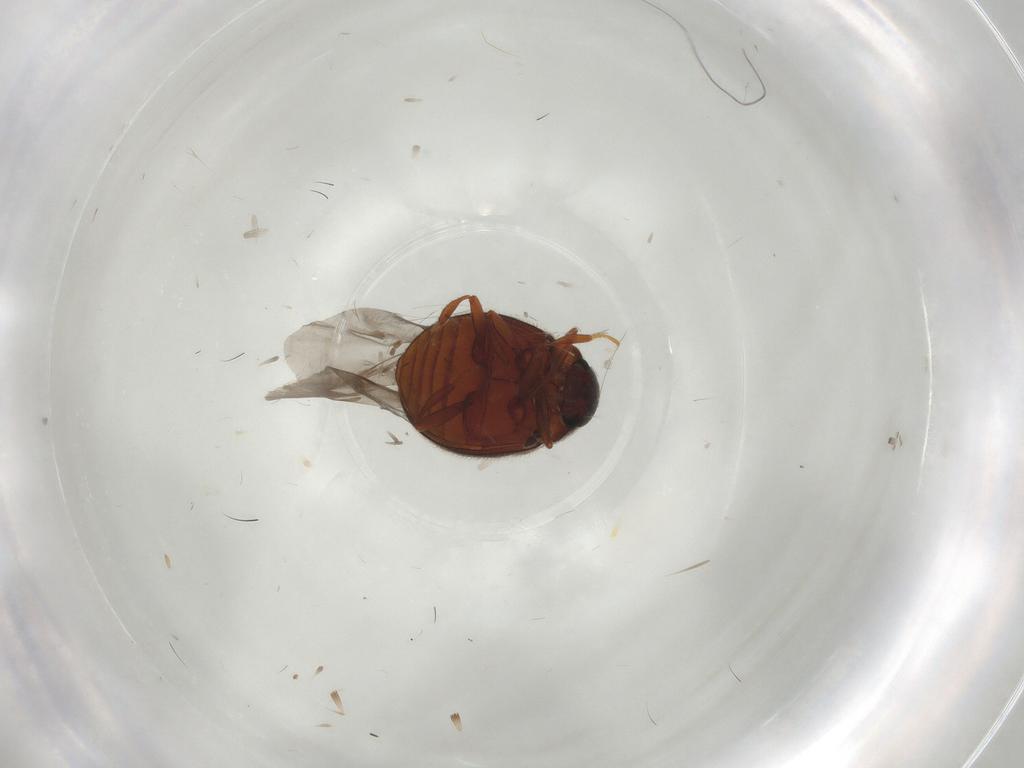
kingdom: Animalia
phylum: Arthropoda
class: Insecta
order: Coleoptera
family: Sphindidae
